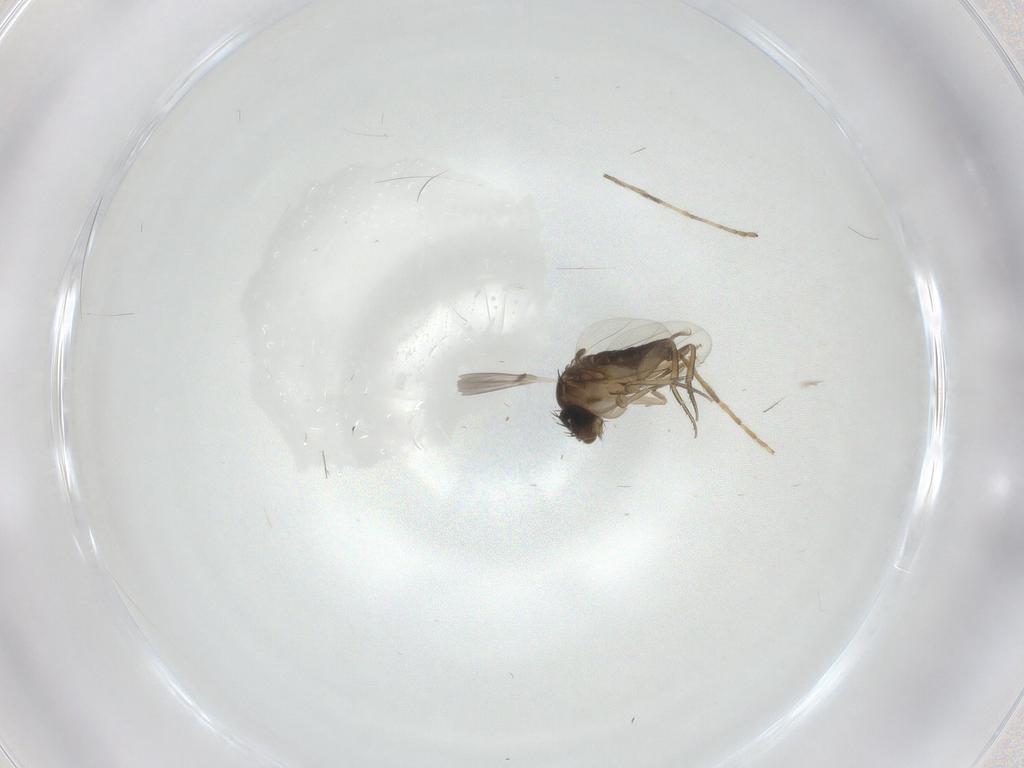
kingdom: Animalia
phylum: Arthropoda
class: Insecta
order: Diptera
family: Phoridae
